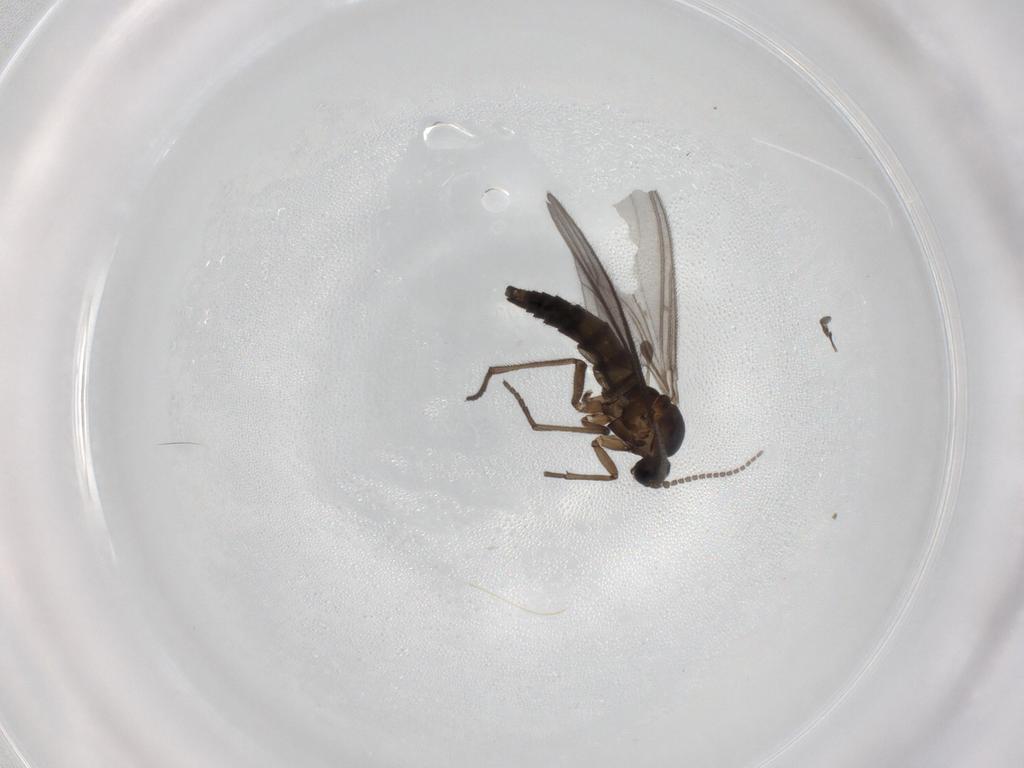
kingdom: Animalia
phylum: Arthropoda
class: Insecta
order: Diptera
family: Sciaridae
